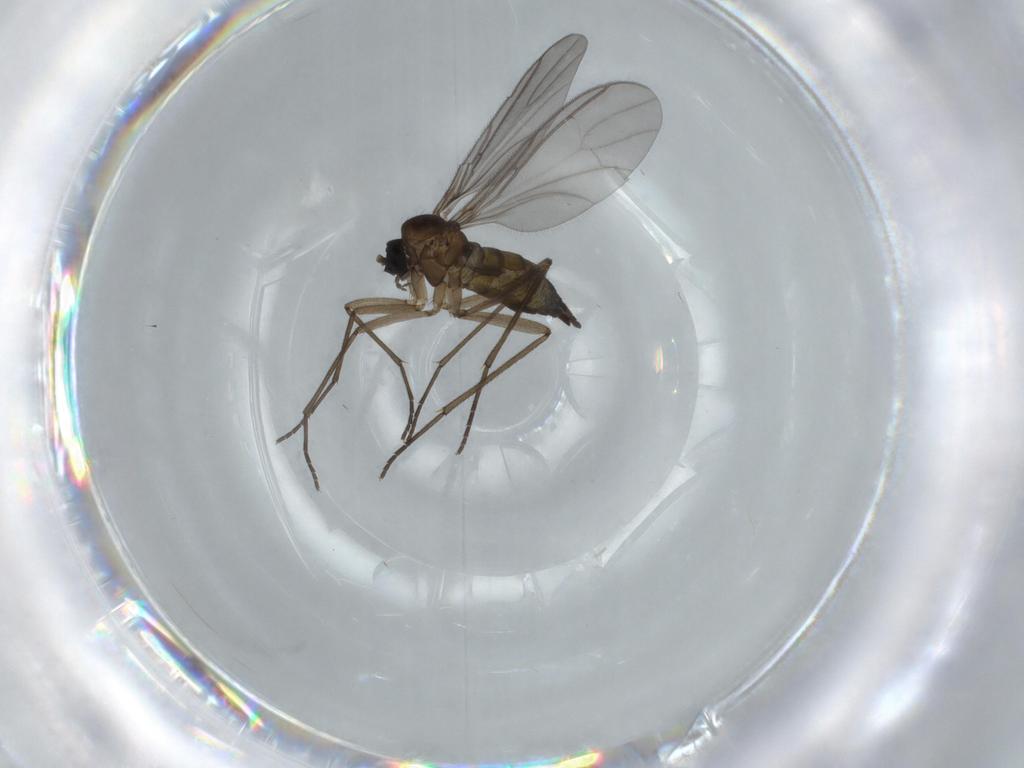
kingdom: Animalia
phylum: Arthropoda
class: Insecta
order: Diptera
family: Sciaridae
